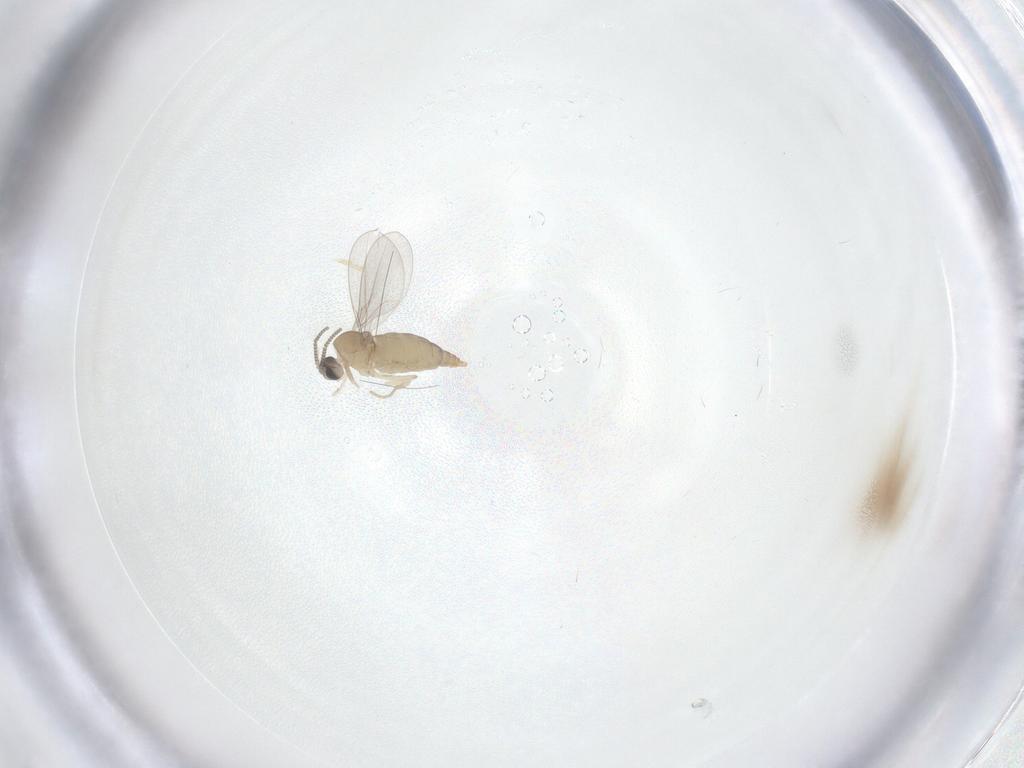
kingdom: Animalia
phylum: Arthropoda
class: Insecta
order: Diptera
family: Cecidomyiidae
